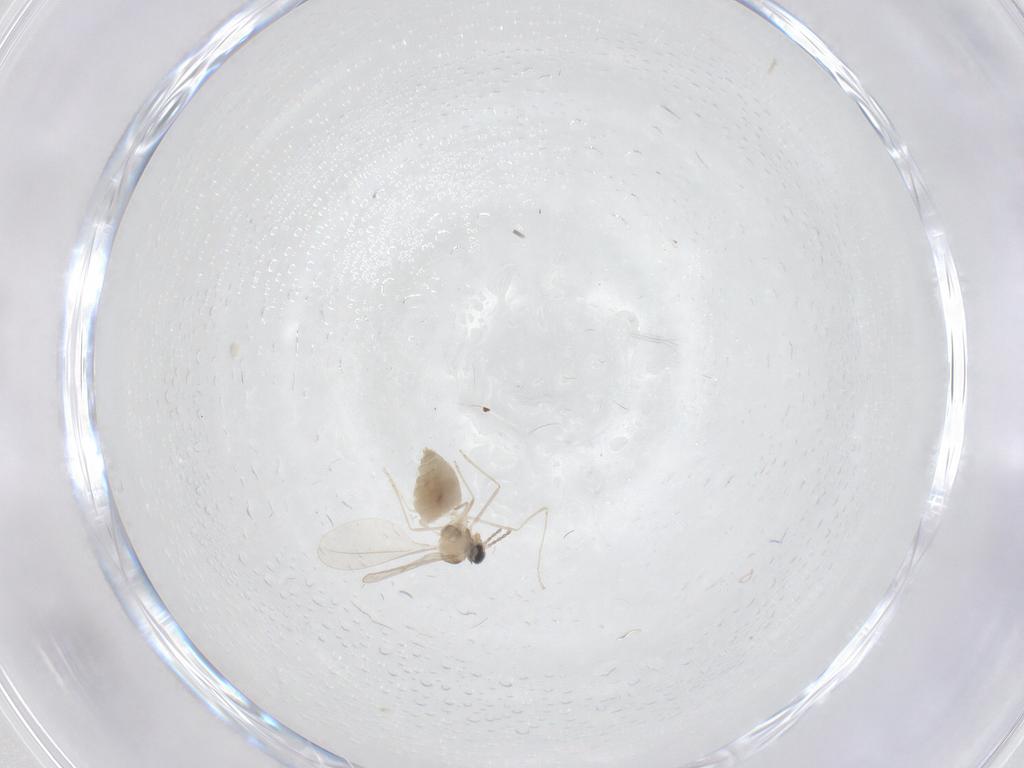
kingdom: Animalia
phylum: Arthropoda
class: Insecta
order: Diptera
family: Cecidomyiidae
